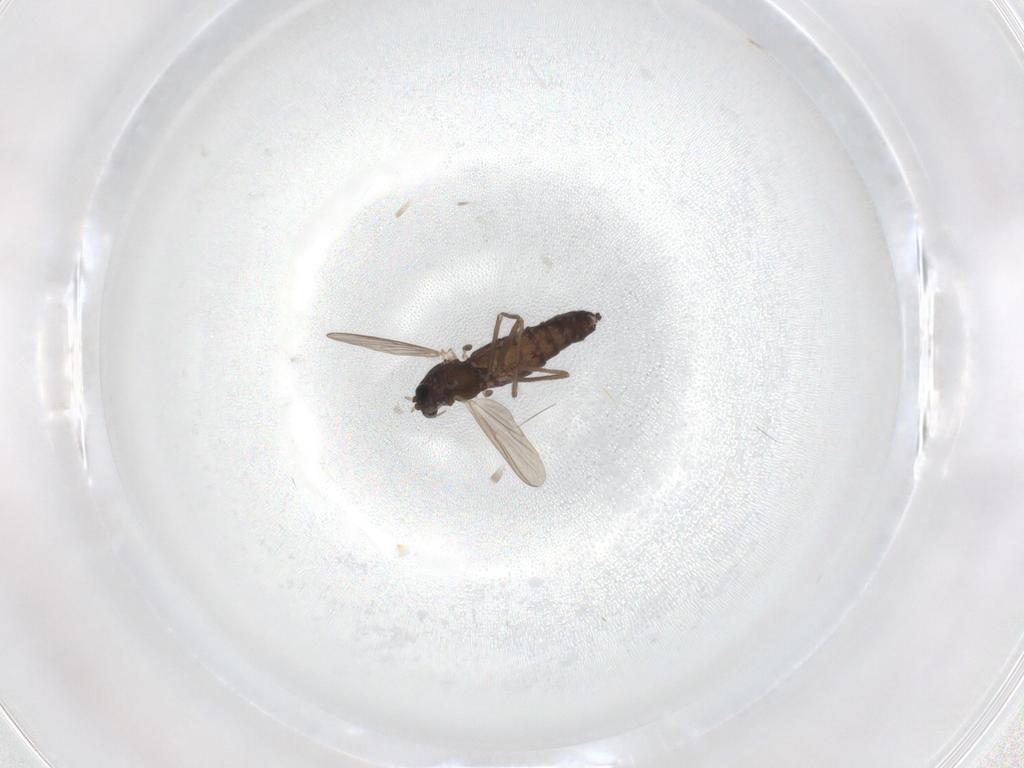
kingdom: Animalia
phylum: Arthropoda
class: Insecta
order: Diptera
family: Chironomidae
